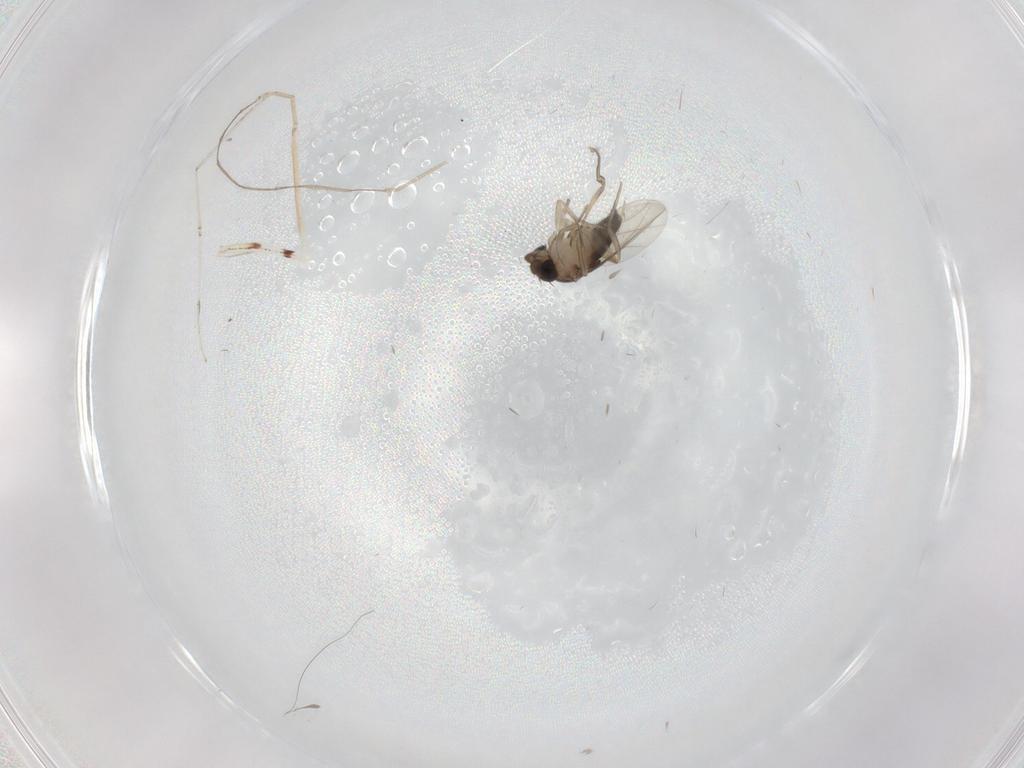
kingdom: Animalia
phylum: Arthropoda
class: Insecta
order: Diptera
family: Phoridae
